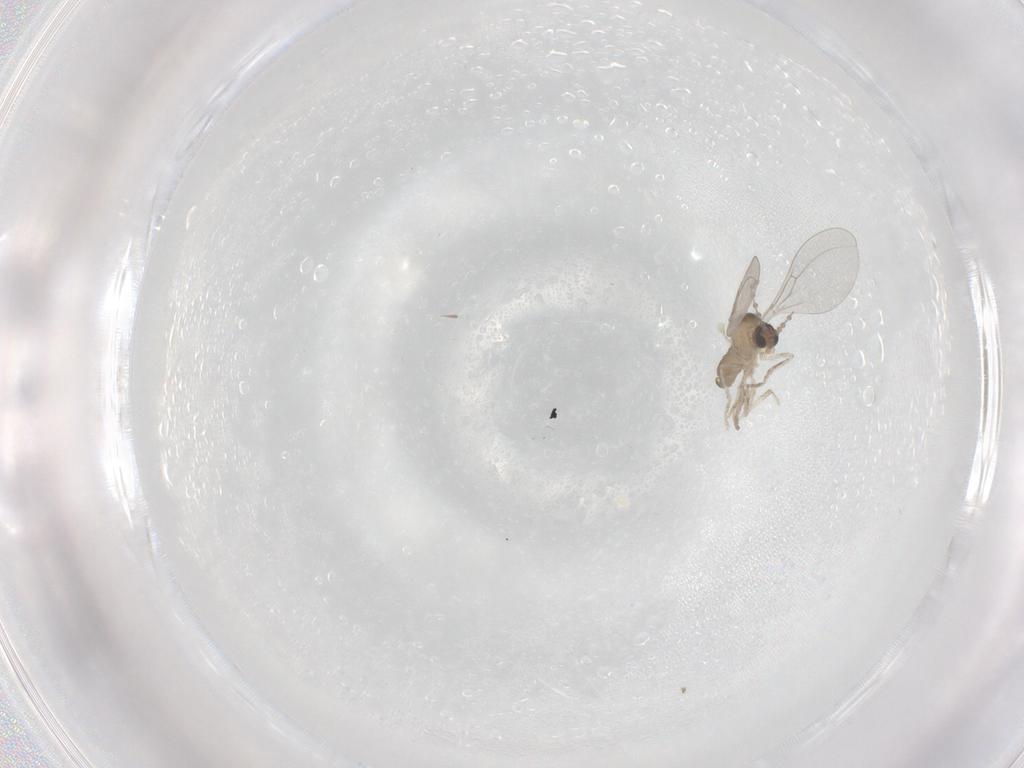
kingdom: Animalia
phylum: Arthropoda
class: Insecta
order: Diptera
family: Cecidomyiidae
